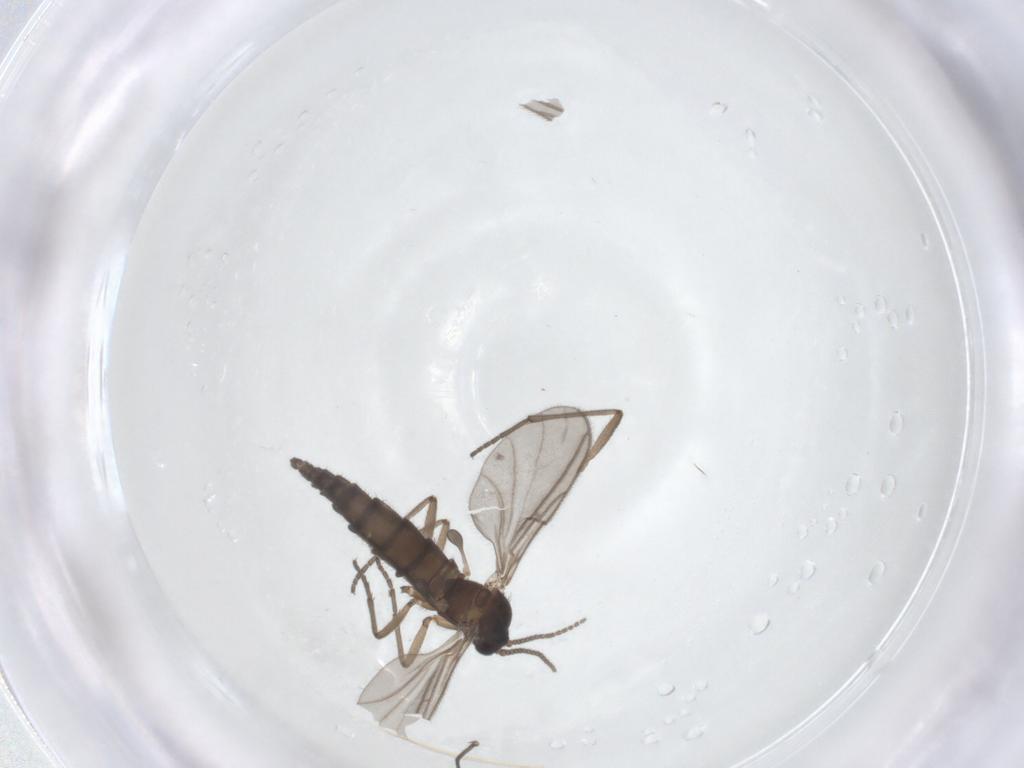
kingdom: Animalia
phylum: Arthropoda
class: Insecta
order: Diptera
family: Sciaridae
